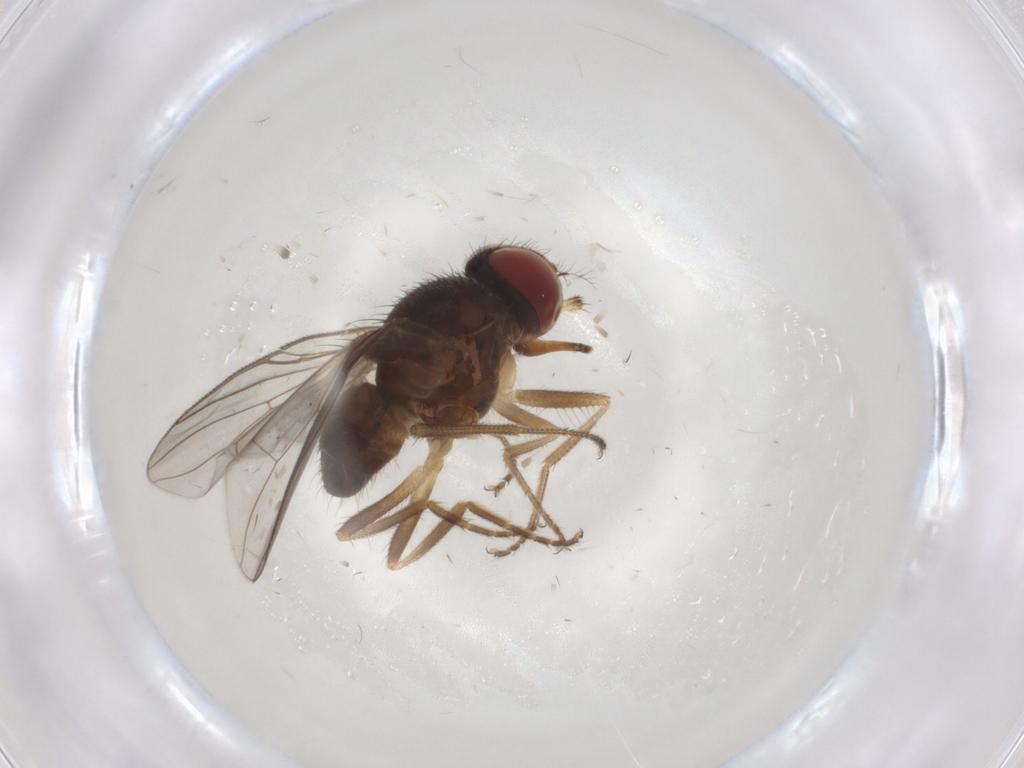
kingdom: Animalia
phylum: Arthropoda
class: Insecta
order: Diptera
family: Muscidae
